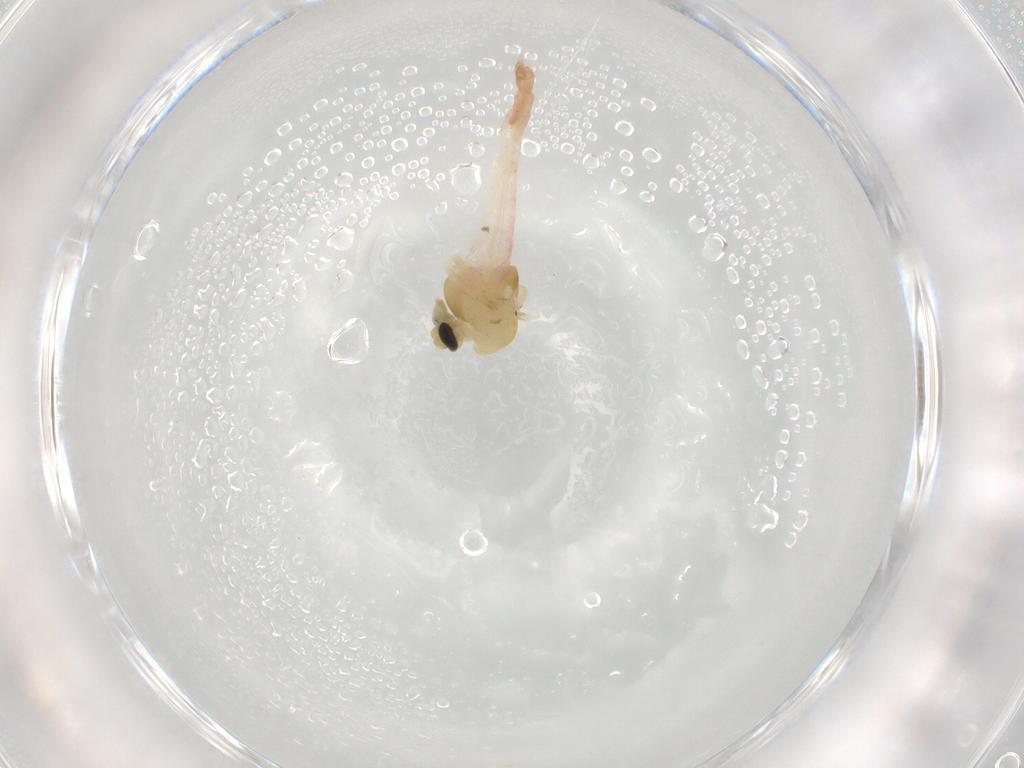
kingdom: Animalia
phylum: Arthropoda
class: Insecta
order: Diptera
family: Chironomidae
